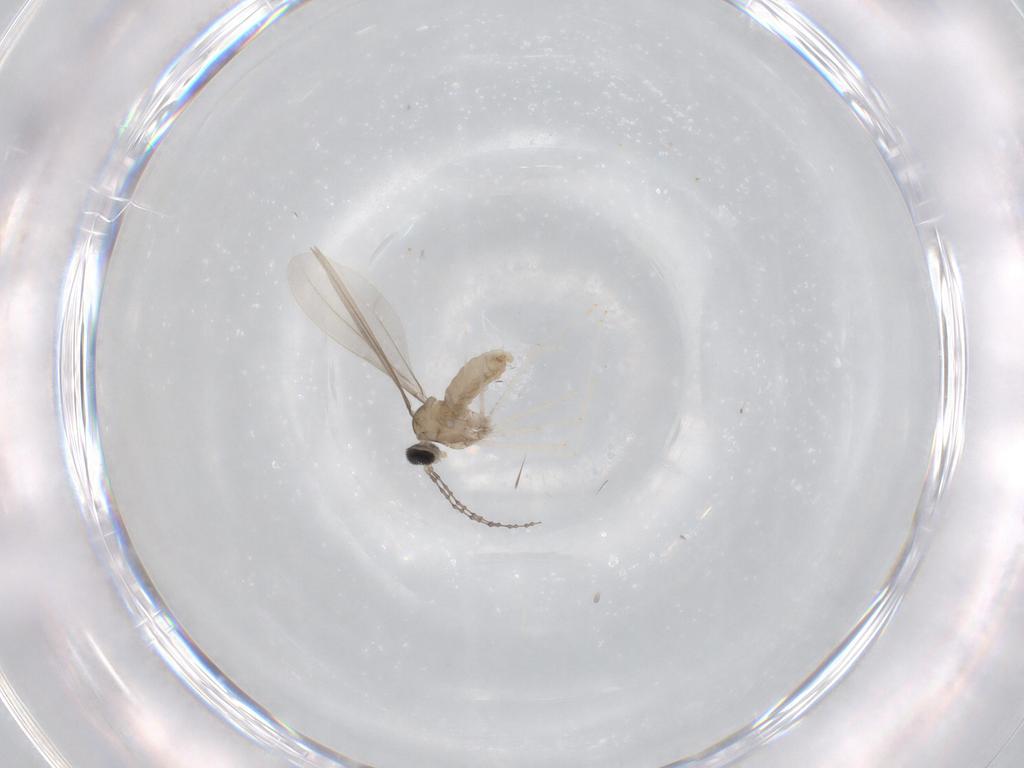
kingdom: Animalia
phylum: Arthropoda
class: Insecta
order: Diptera
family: Cecidomyiidae
